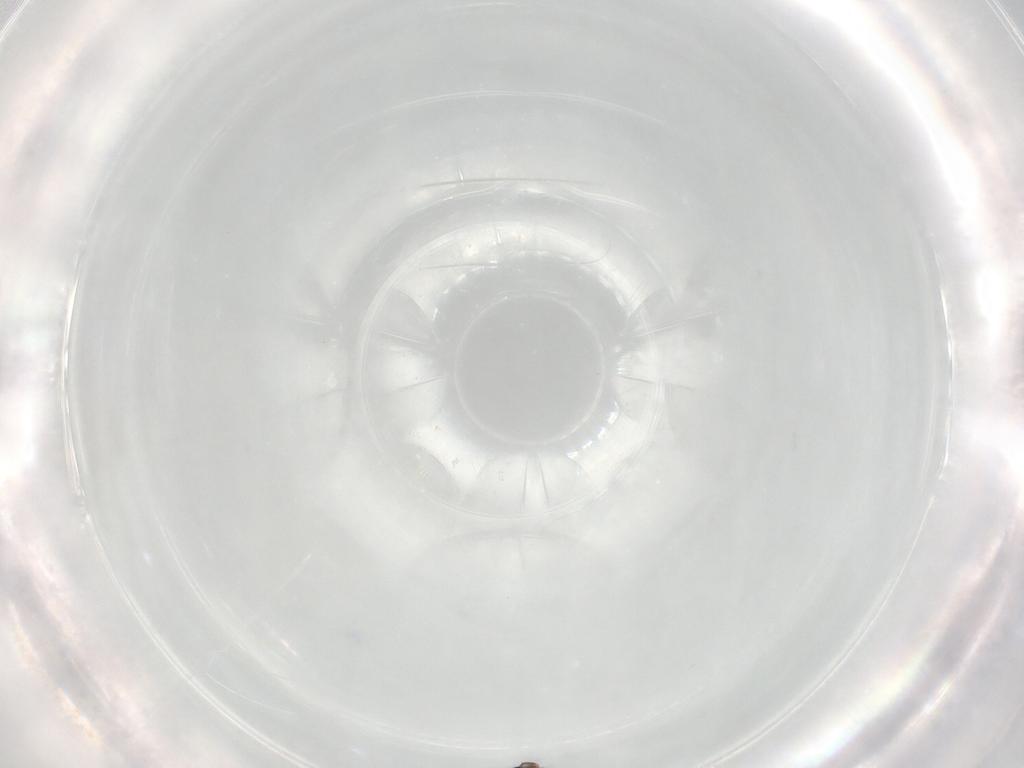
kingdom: Animalia
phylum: Arthropoda
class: Insecta
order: Hymenoptera
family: Scelionidae
